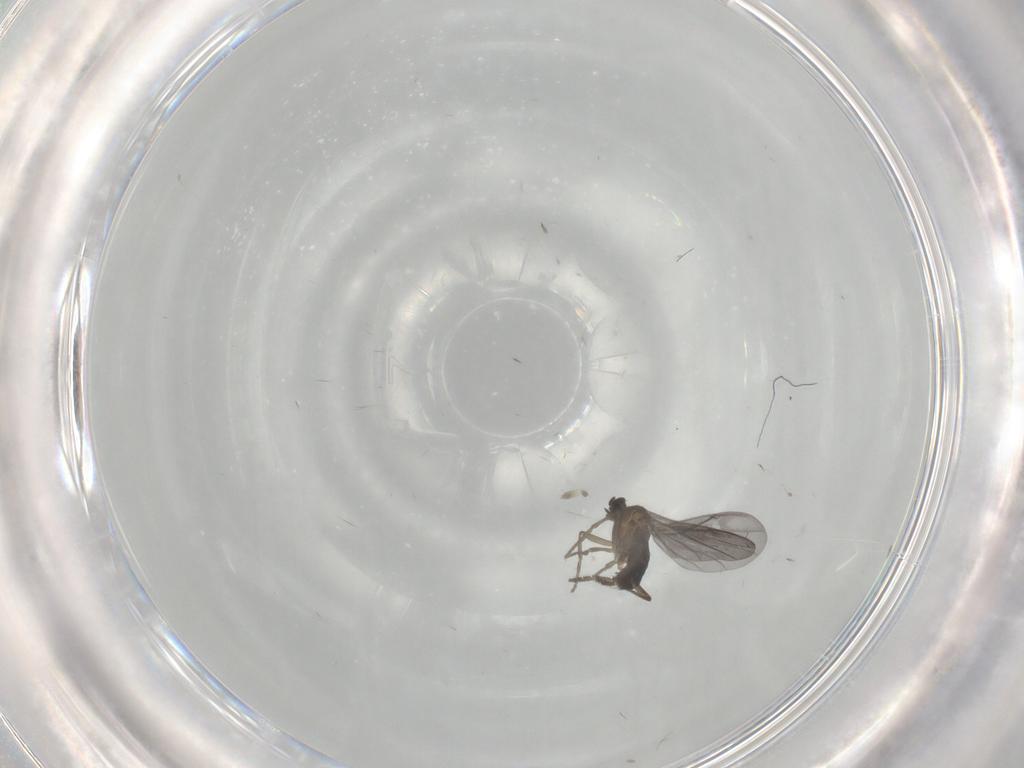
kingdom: Animalia
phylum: Arthropoda
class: Insecta
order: Diptera
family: Phoridae
